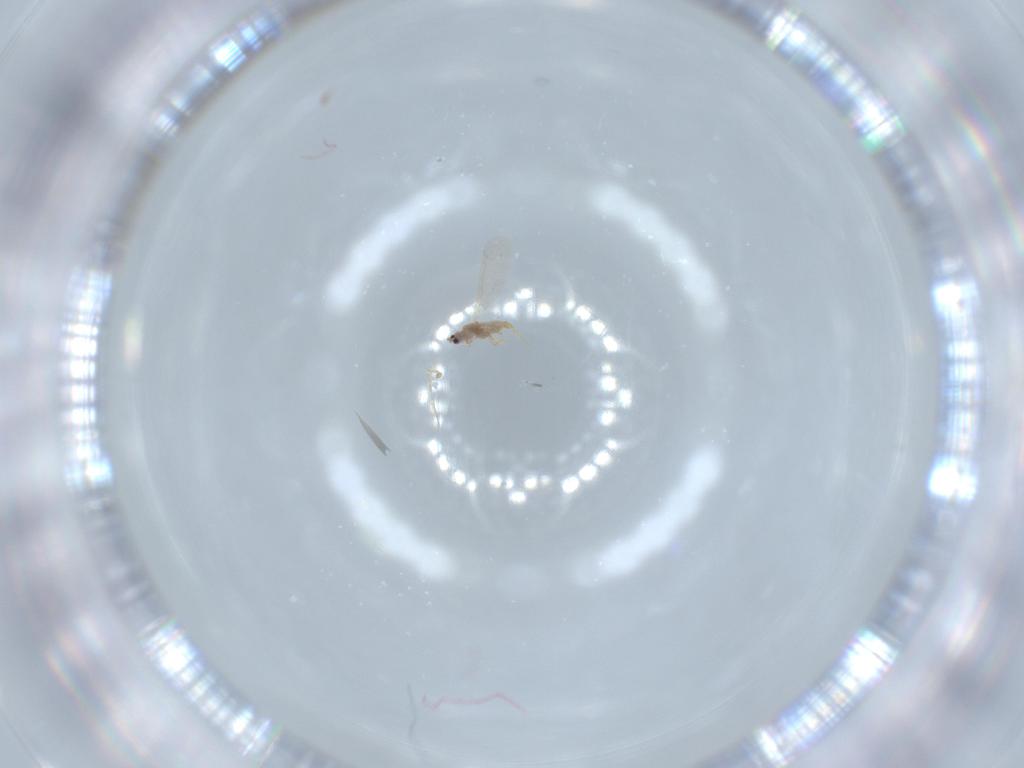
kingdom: Animalia
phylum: Arthropoda
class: Insecta
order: Hemiptera
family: Diaspididae
